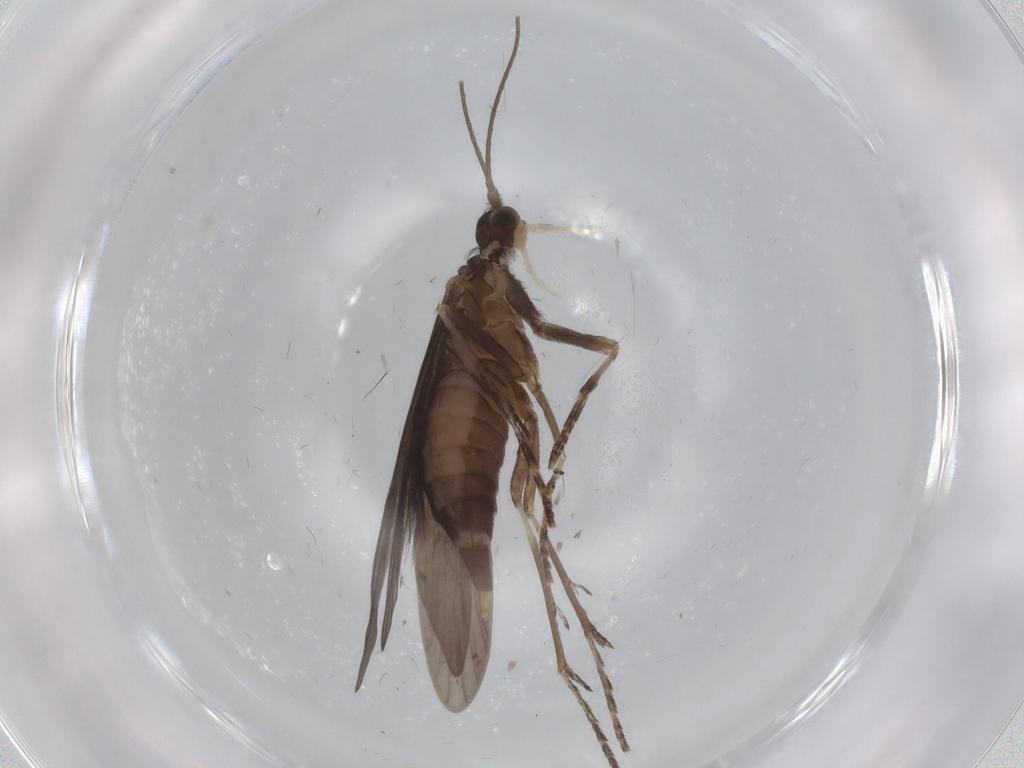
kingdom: Animalia
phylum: Arthropoda
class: Insecta
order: Trichoptera
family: Xiphocentronidae
